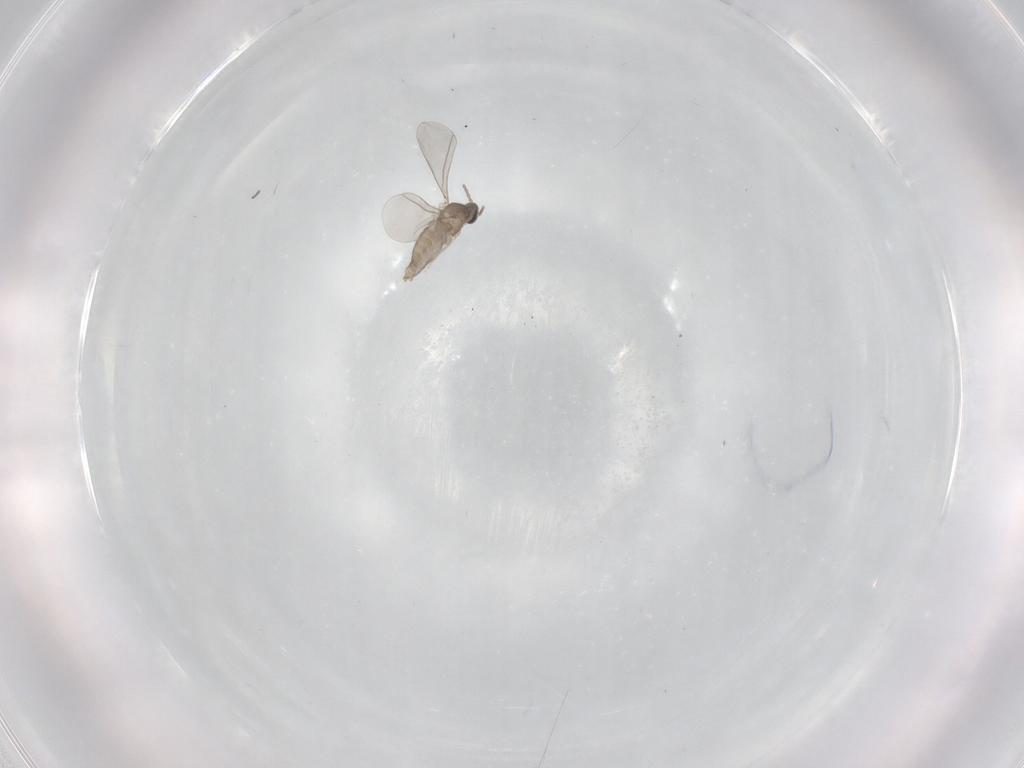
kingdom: Animalia
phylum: Arthropoda
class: Insecta
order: Diptera
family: Cecidomyiidae
